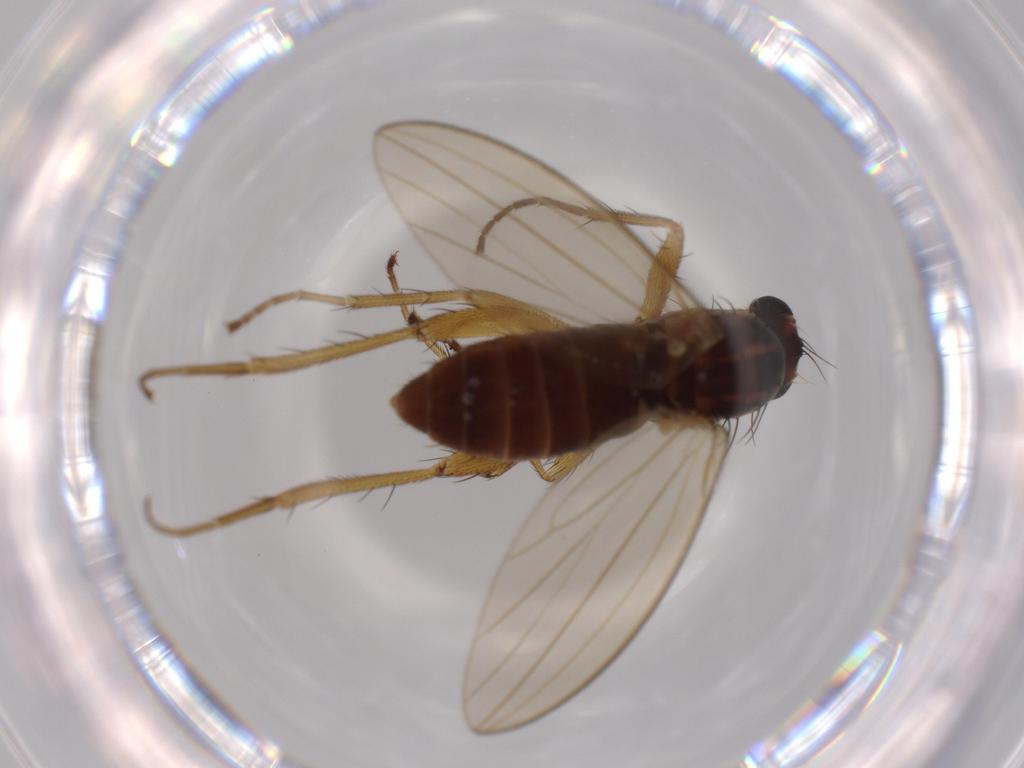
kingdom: Animalia
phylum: Arthropoda
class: Insecta
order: Diptera
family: Lonchopteridae
